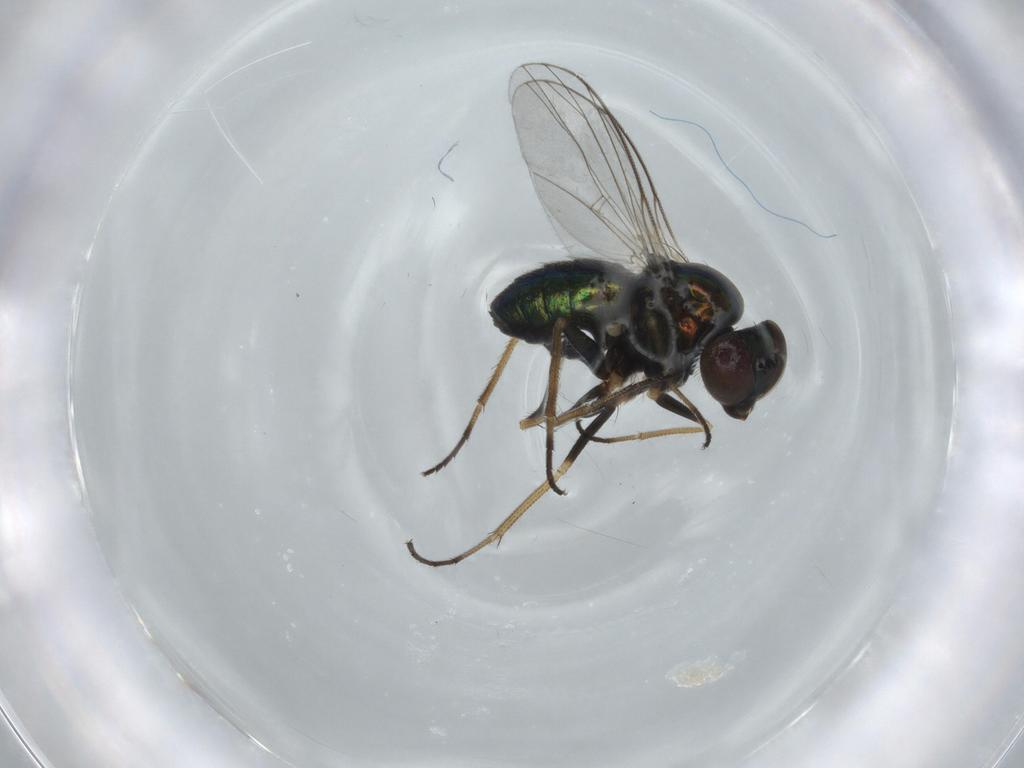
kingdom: Animalia
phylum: Arthropoda
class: Insecta
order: Diptera
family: Dolichopodidae
